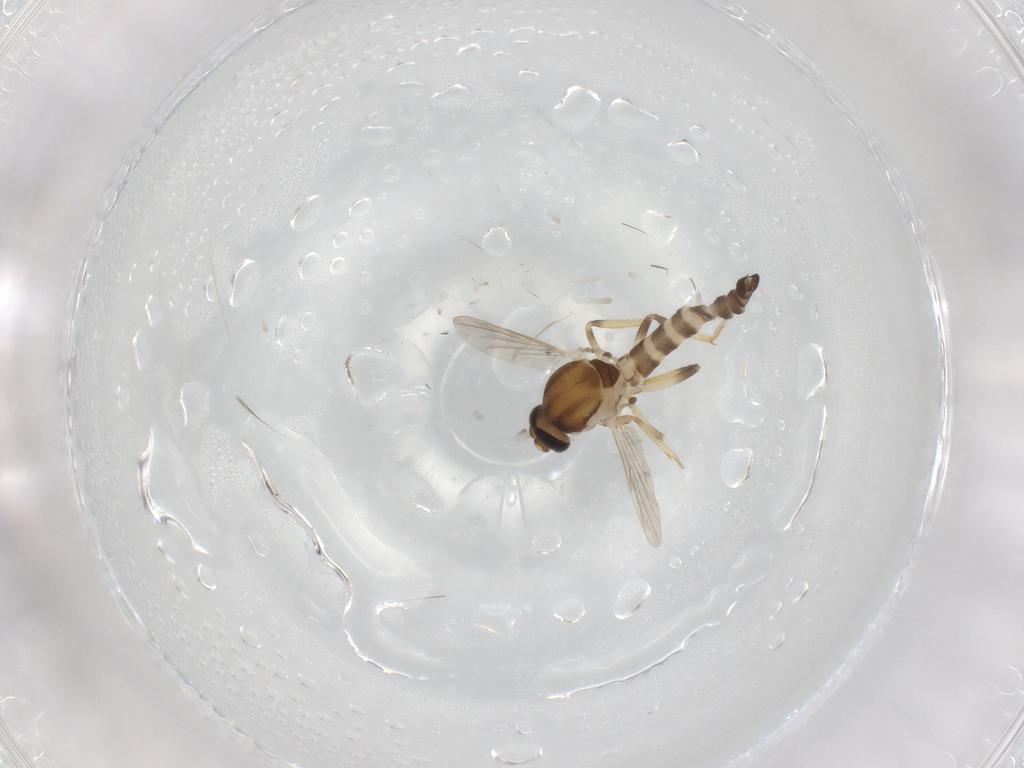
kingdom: Animalia
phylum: Arthropoda
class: Insecta
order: Diptera
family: Ceratopogonidae
